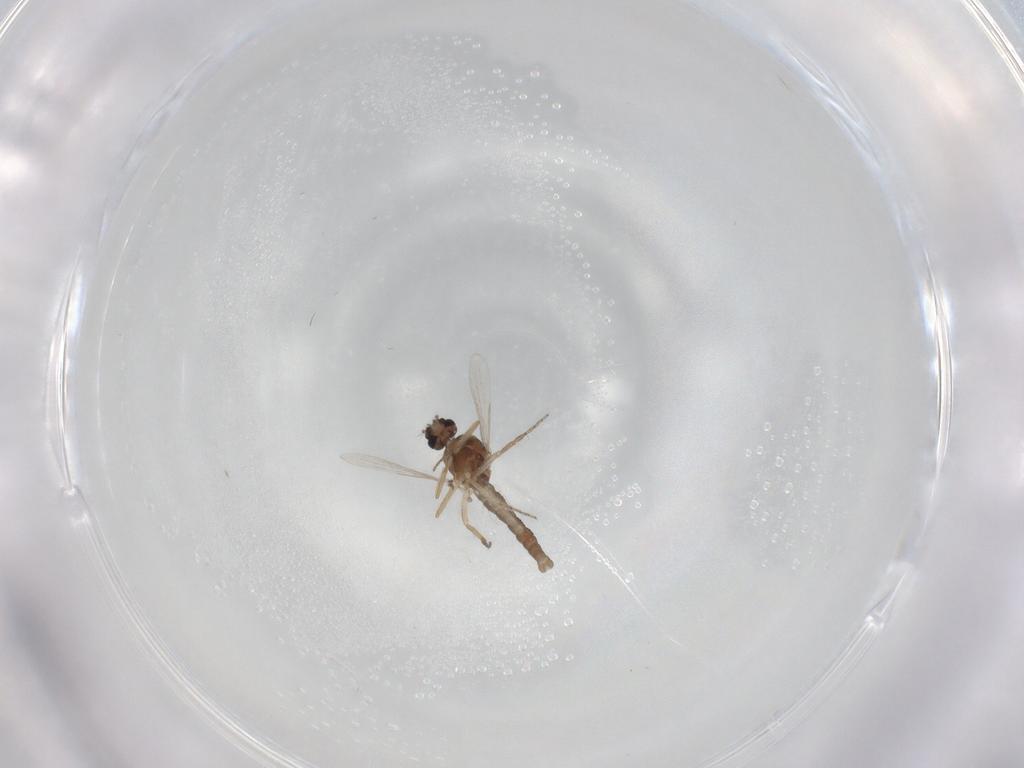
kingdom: Animalia
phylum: Arthropoda
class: Insecta
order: Diptera
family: Ceratopogonidae
